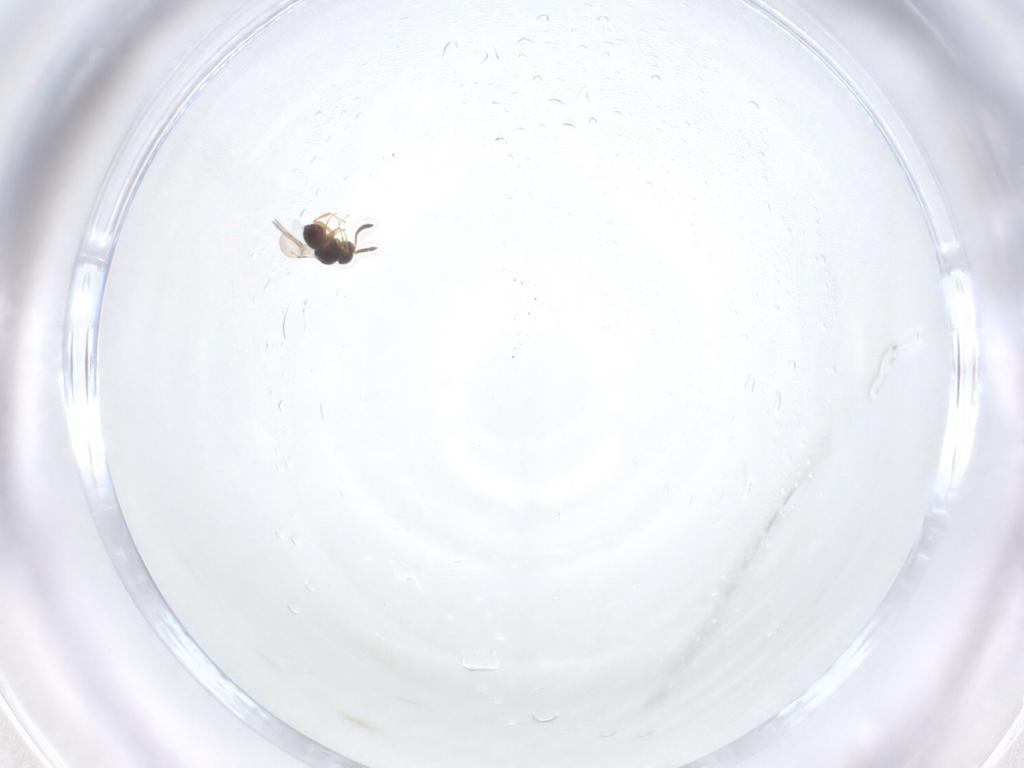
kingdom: Animalia
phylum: Arthropoda
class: Insecta
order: Hymenoptera
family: Ceraphronidae
